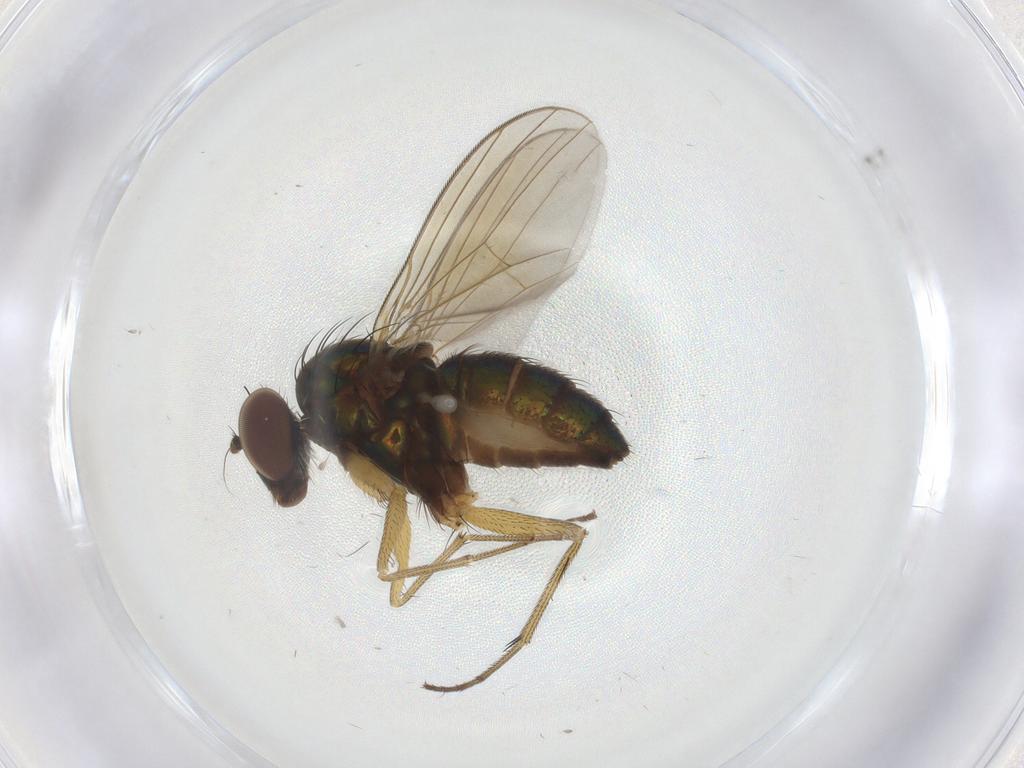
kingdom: Animalia
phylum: Arthropoda
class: Insecta
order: Diptera
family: Dolichopodidae
